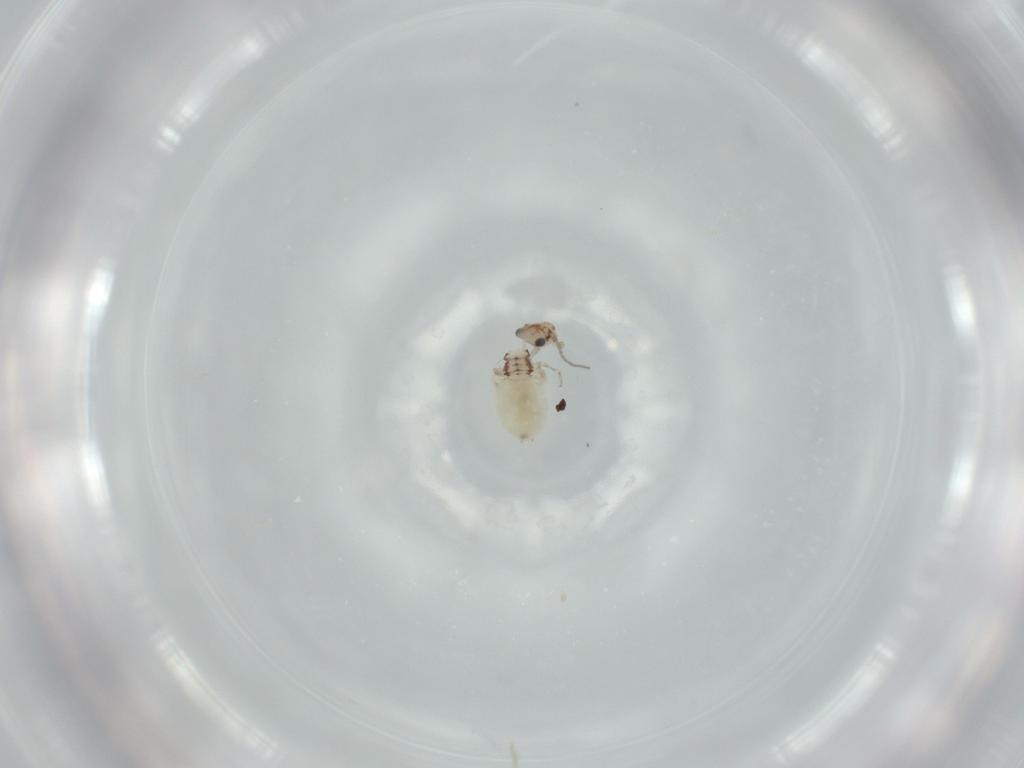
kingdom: Animalia
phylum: Arthropoda
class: Insecta
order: Psocodea
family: Lepidopsocidae
